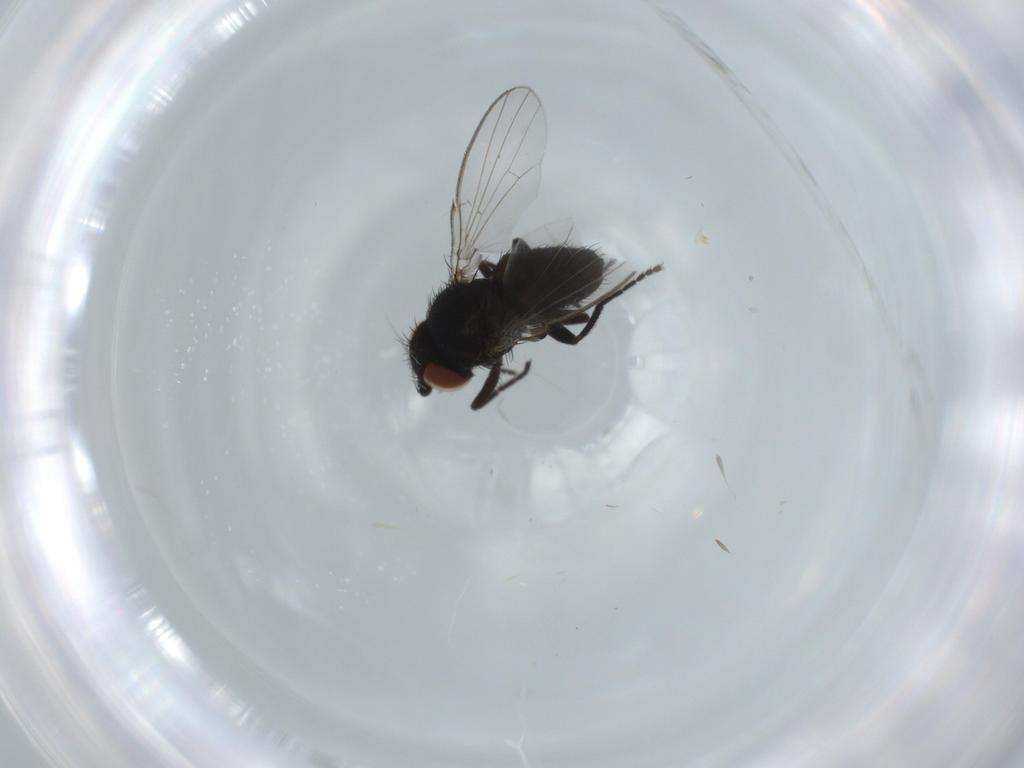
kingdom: Animalia
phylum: Arthropoda
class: Insecta
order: Diptera
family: Milichiidae
